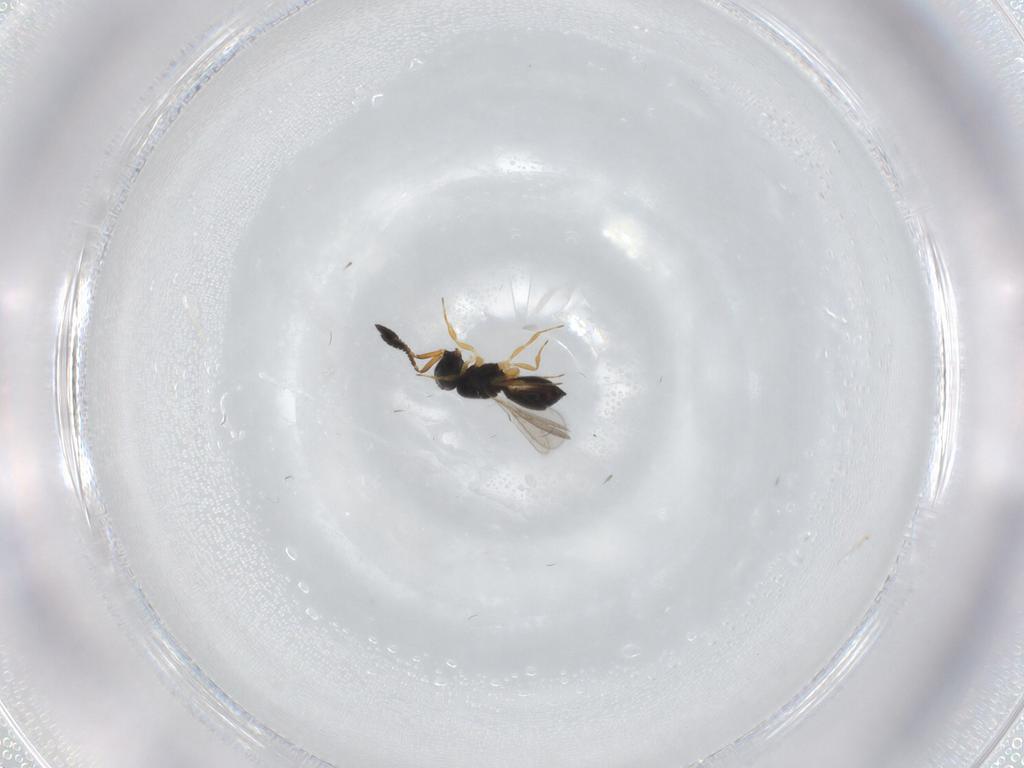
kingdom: Animalia
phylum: Arthropoda
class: Insecta
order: Hymenoptera
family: Scelionidae
